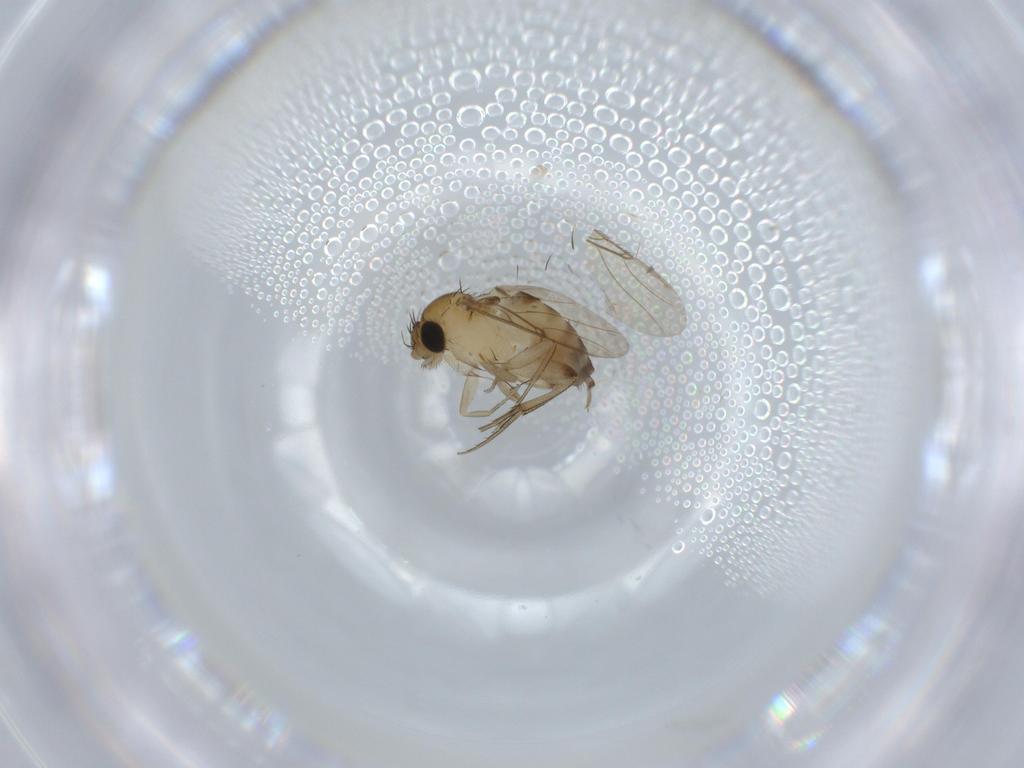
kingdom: Animalia
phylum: Arthropoda
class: Insecta
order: Diptera
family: Phoridae
